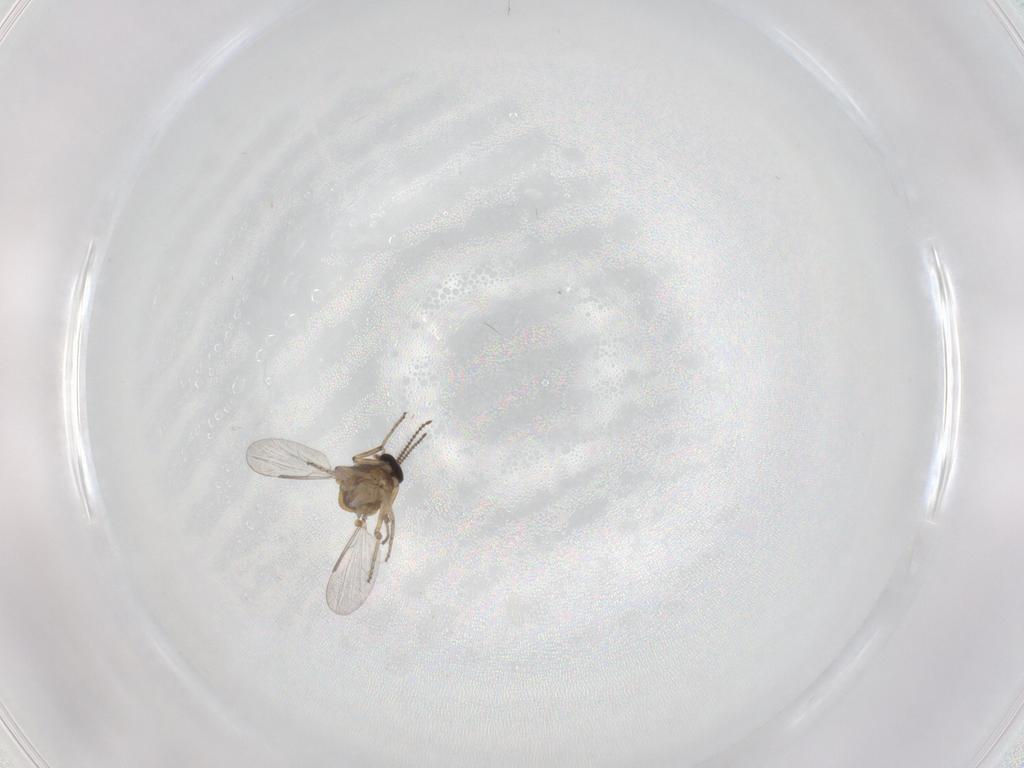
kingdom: Animalia
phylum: Arthropoda
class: Insecta
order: Diptera
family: Ceratopogonidae
